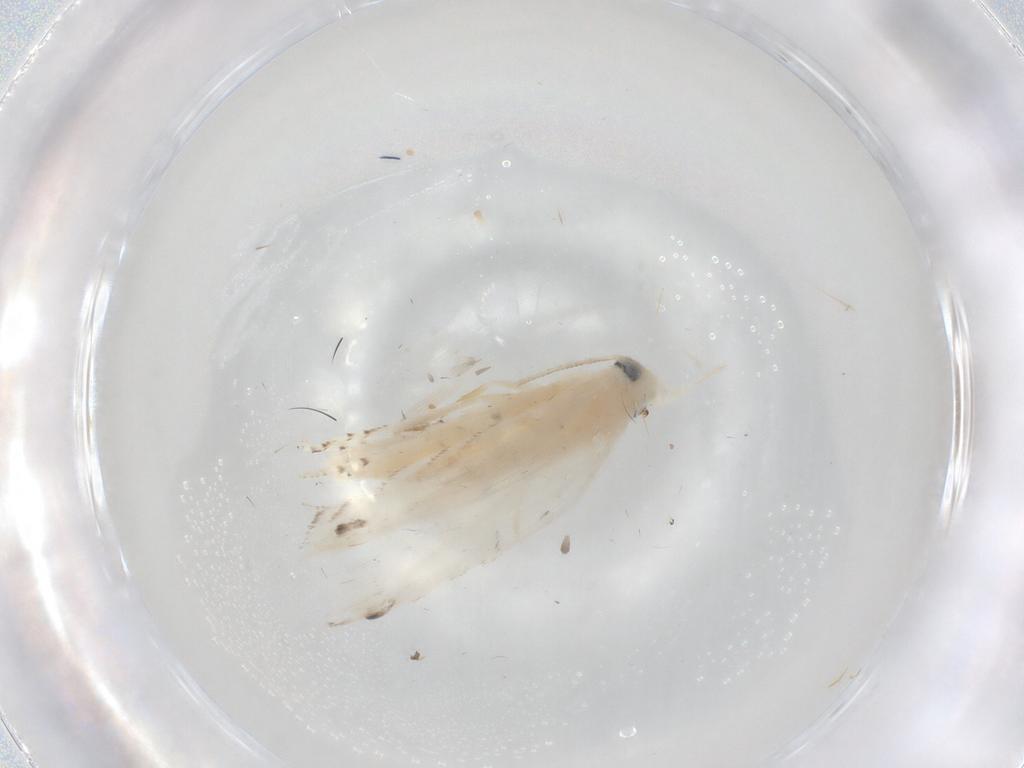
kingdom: Animalia
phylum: Arthropoda
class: Insecta
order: Lepidoptera
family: Lyonetiidae
